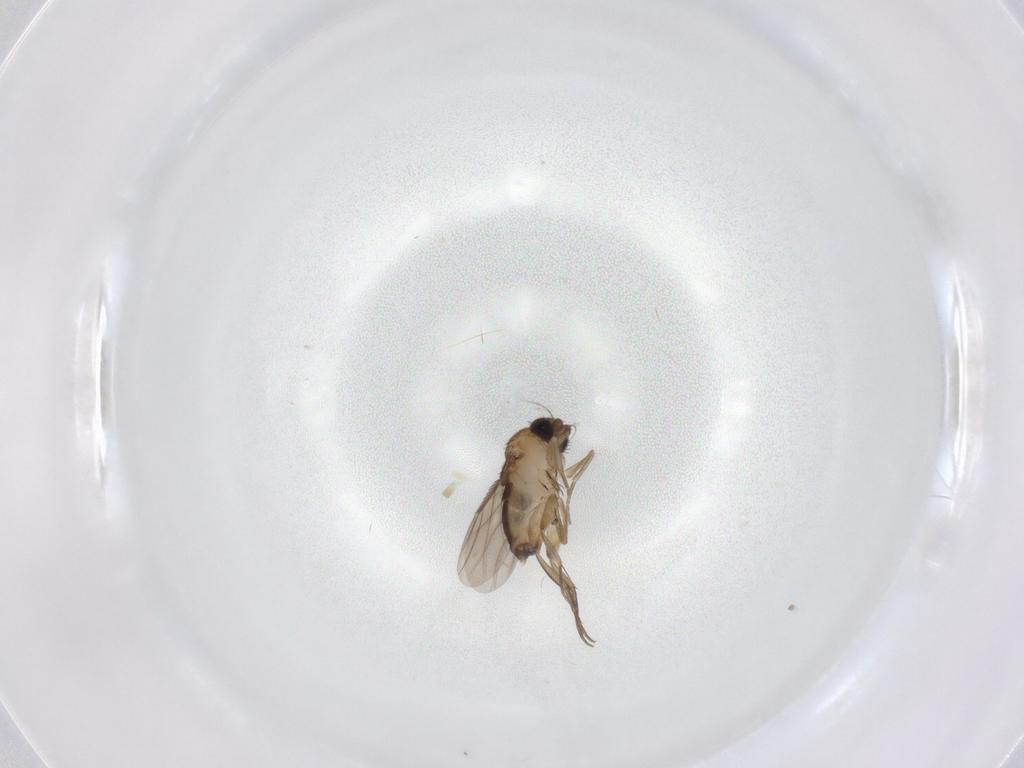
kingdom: Animalia
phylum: Arthropoda
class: Insecta
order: Diptera
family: Phoridae
